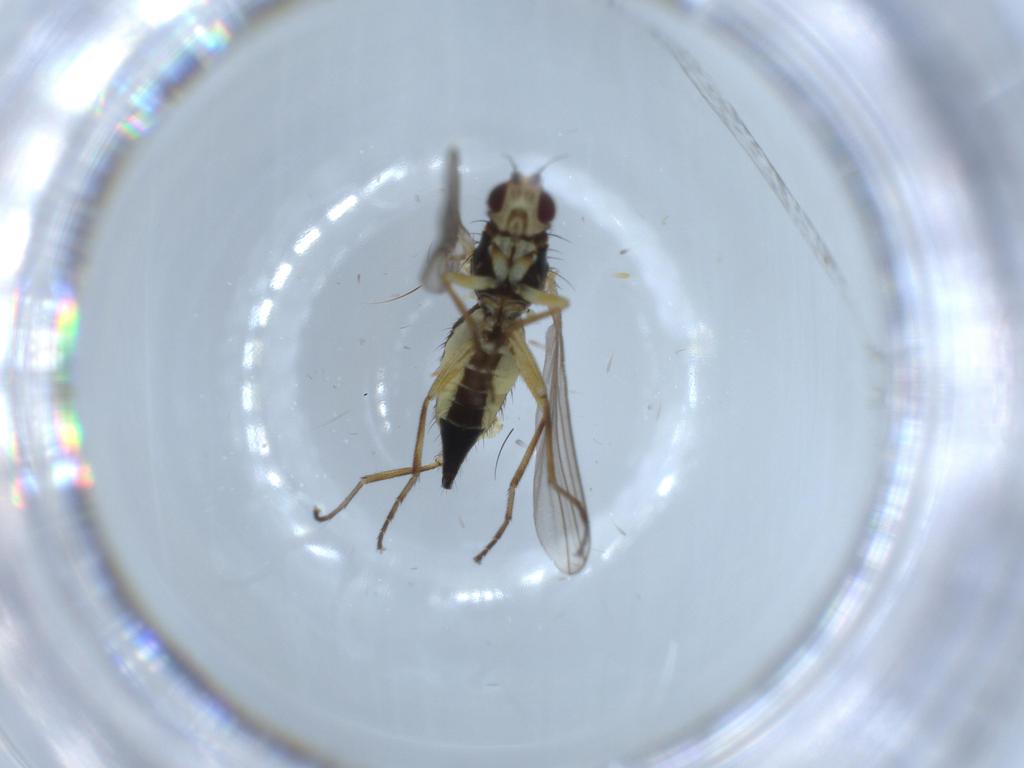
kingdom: Animalia
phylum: Arthropoda
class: Insecta
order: Diptera
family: Agromyzidae
